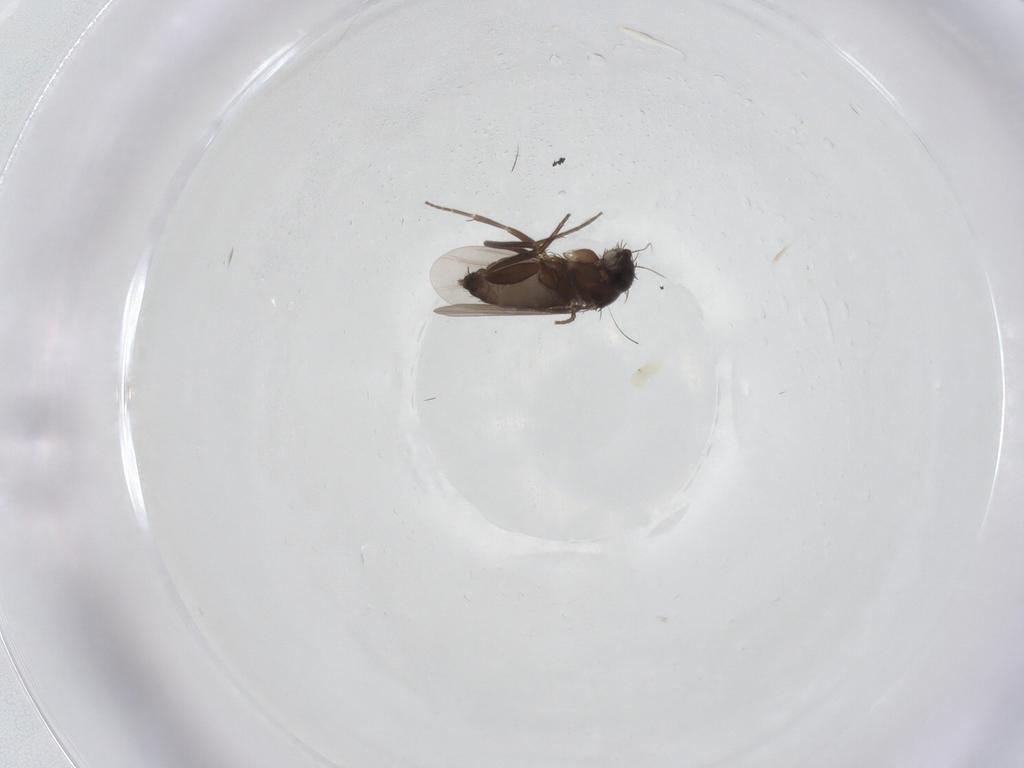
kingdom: Animalia
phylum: Arthropoda
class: Insecta
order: Diptera
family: Phoridae
